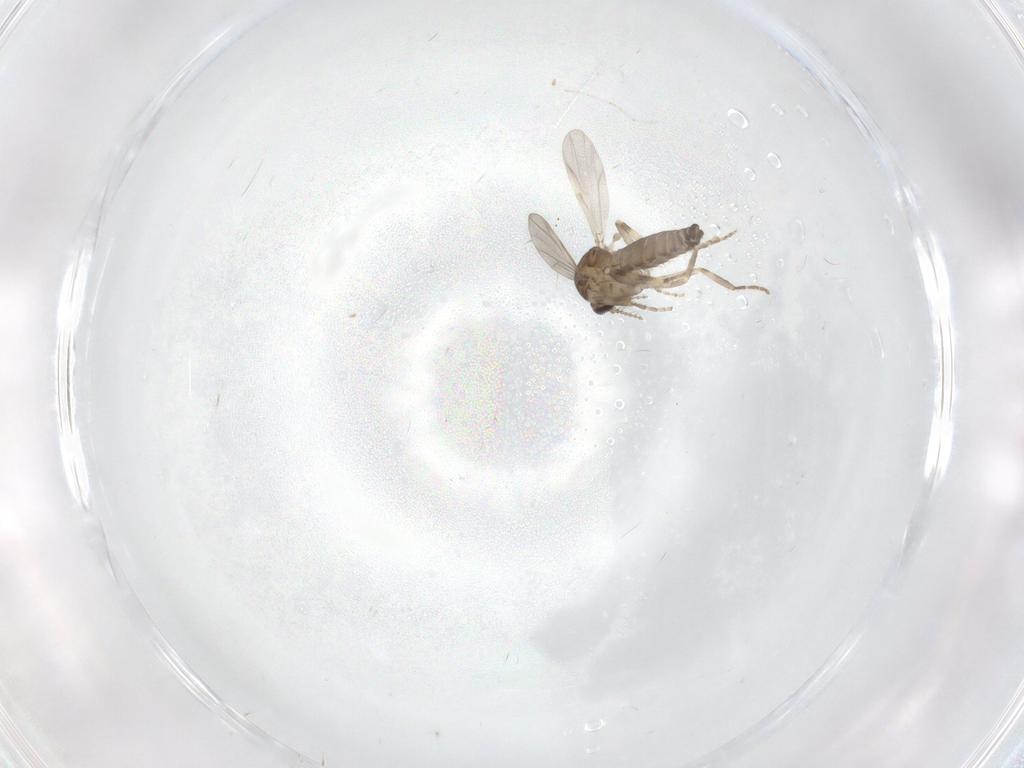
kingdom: Animalia
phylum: Arthropoda
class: Insecta
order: Diptera
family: Ceratopogonidae
